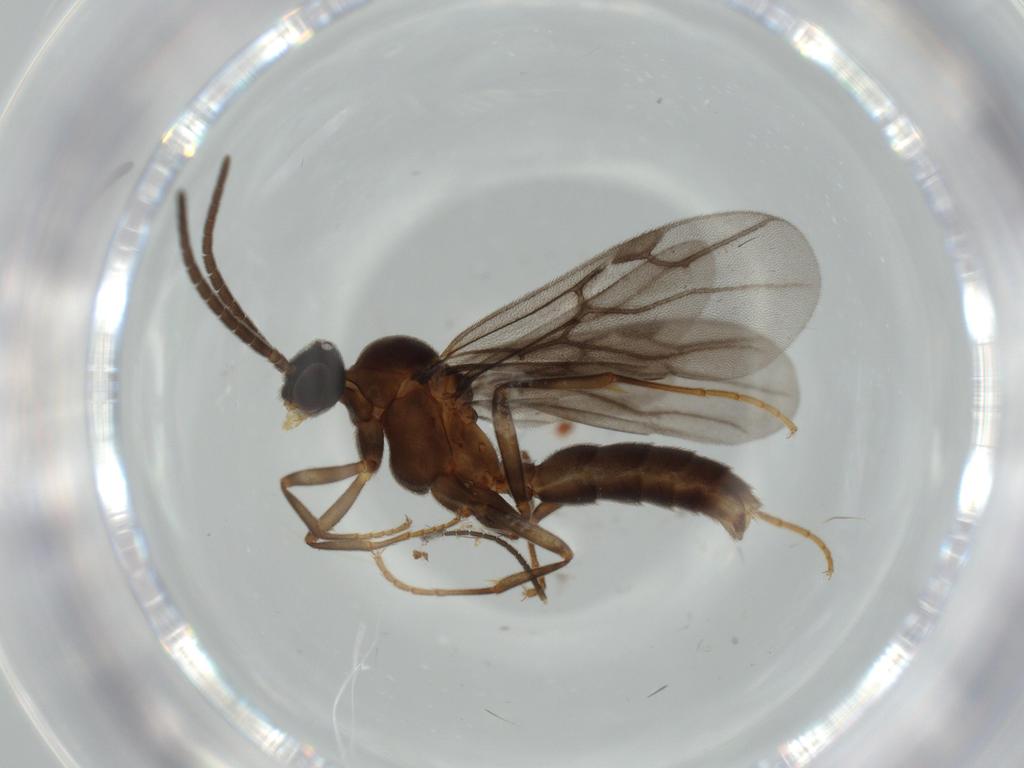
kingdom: Animalia
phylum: Arthropoda
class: Insecta
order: Hymenoptera
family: Formicidae
